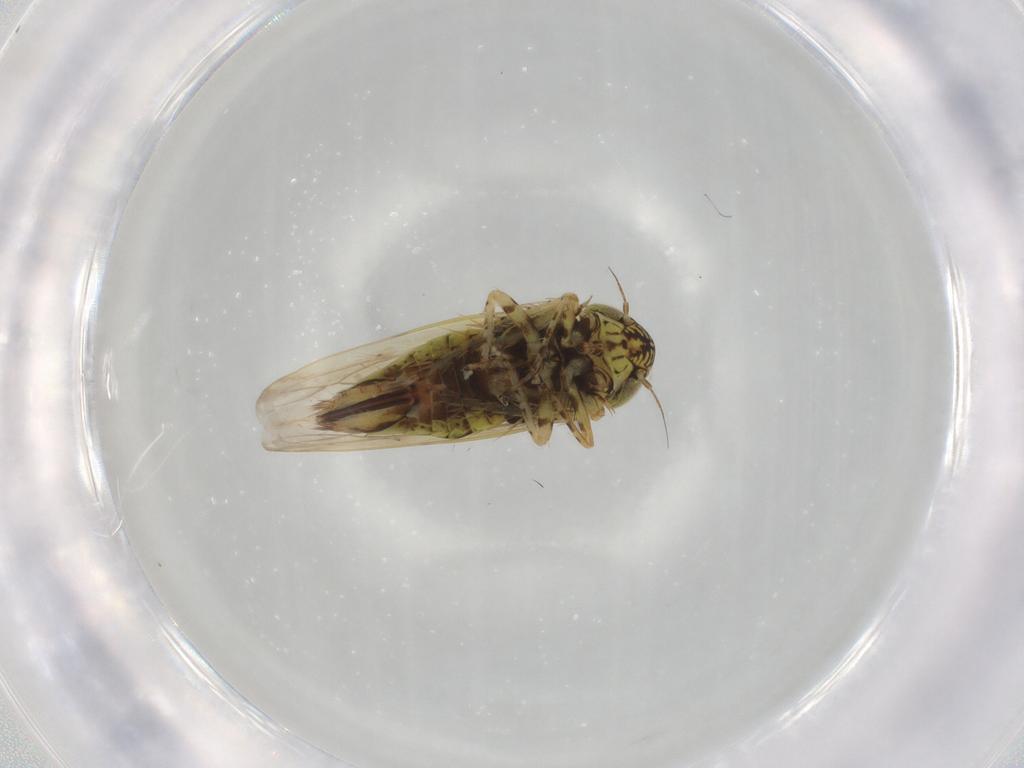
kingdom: Animalia
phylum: Arthropoda
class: Insecta
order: Hemiptera
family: Cicadellidae
